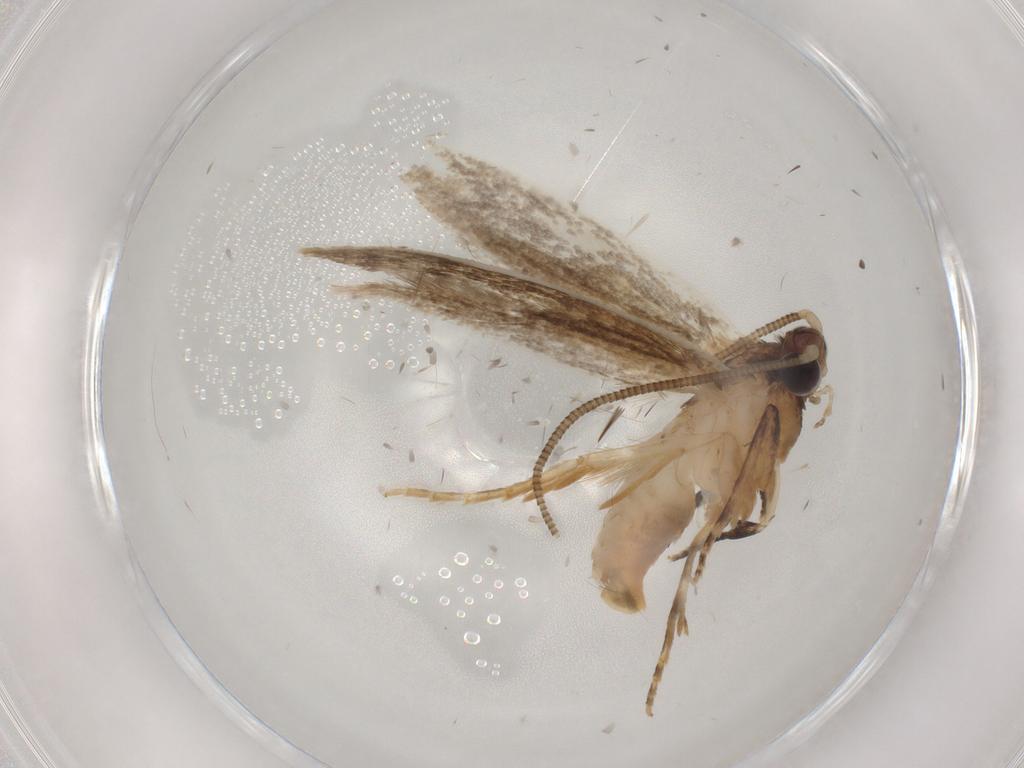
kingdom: Animalia
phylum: Arthropoda
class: Insecta
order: Lepidoptera
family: Tineidae
